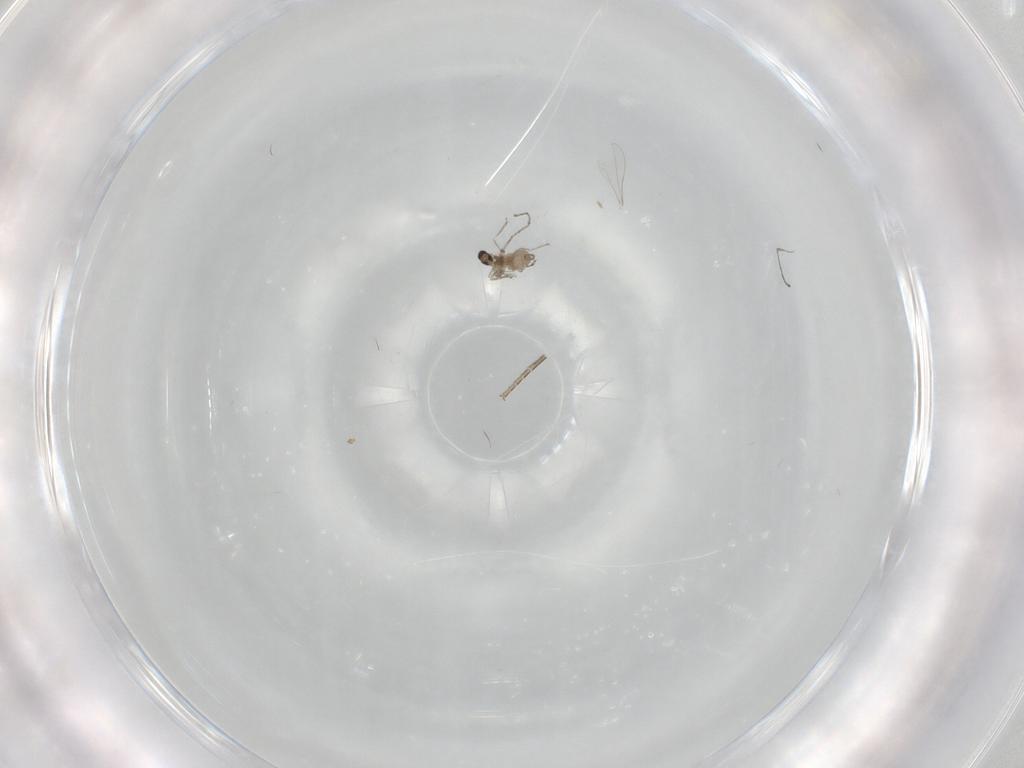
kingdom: Animalia
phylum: Arthropoda
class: Insecta
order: Diptera
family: Cecidomyiidae
